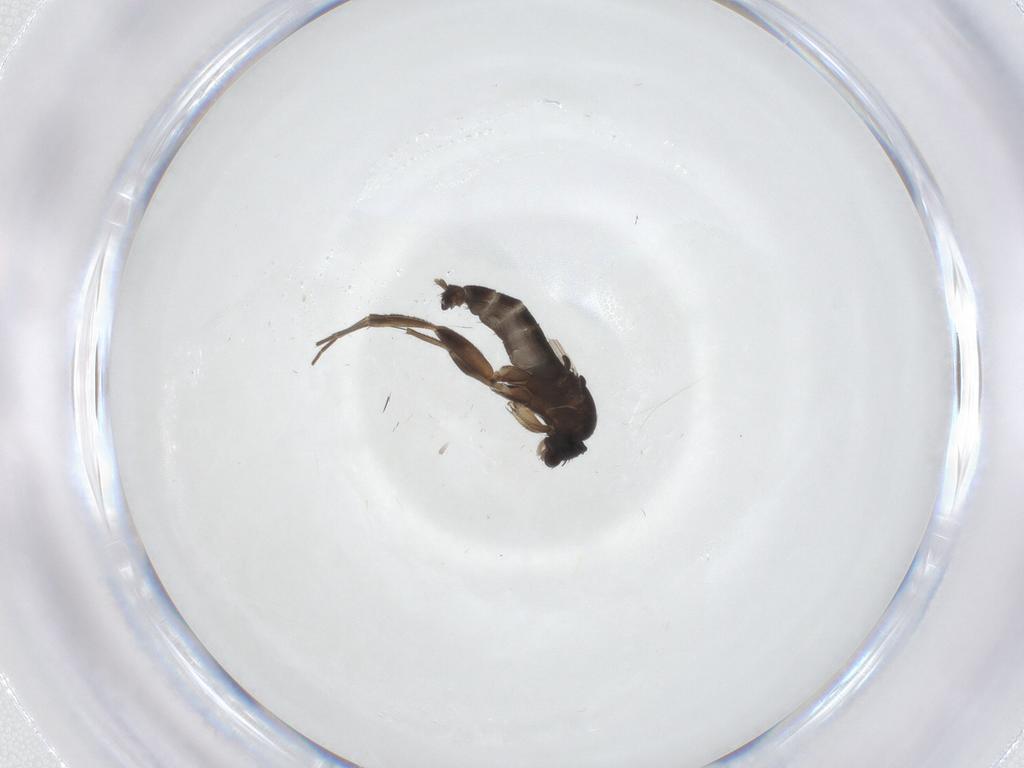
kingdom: Animalia
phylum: Arthropoda
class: Insecta
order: Diptera
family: Phoridae
